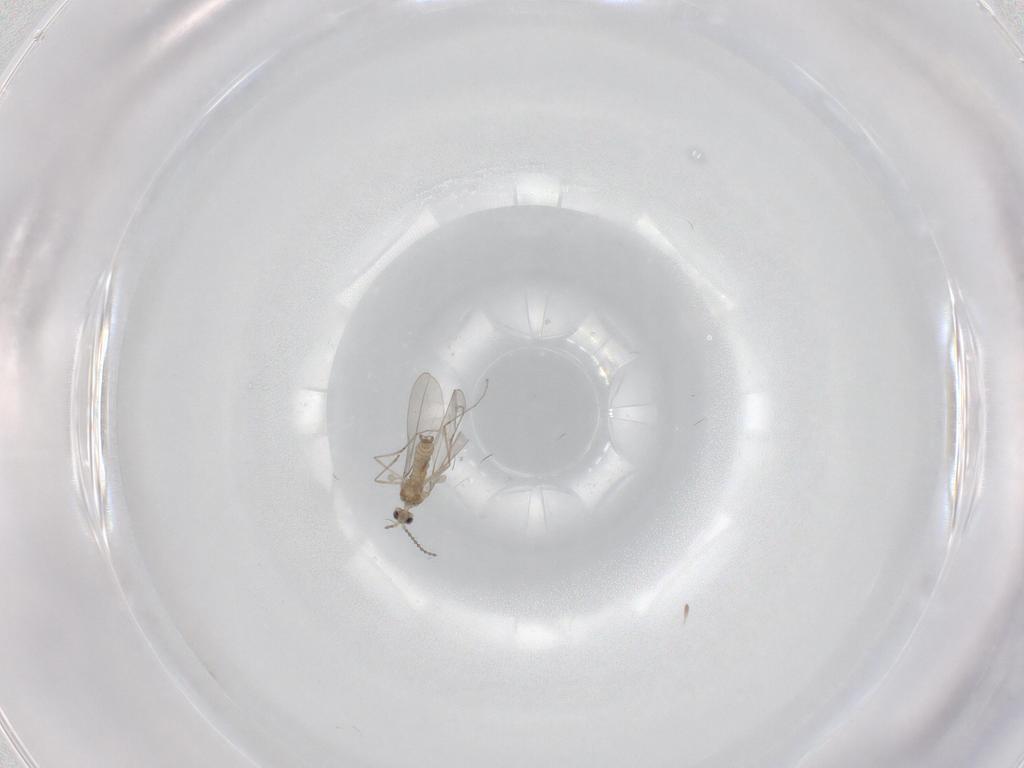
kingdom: Animalia
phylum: Arthropoda
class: Insecta
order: Diptera
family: Cecidomyiidae
